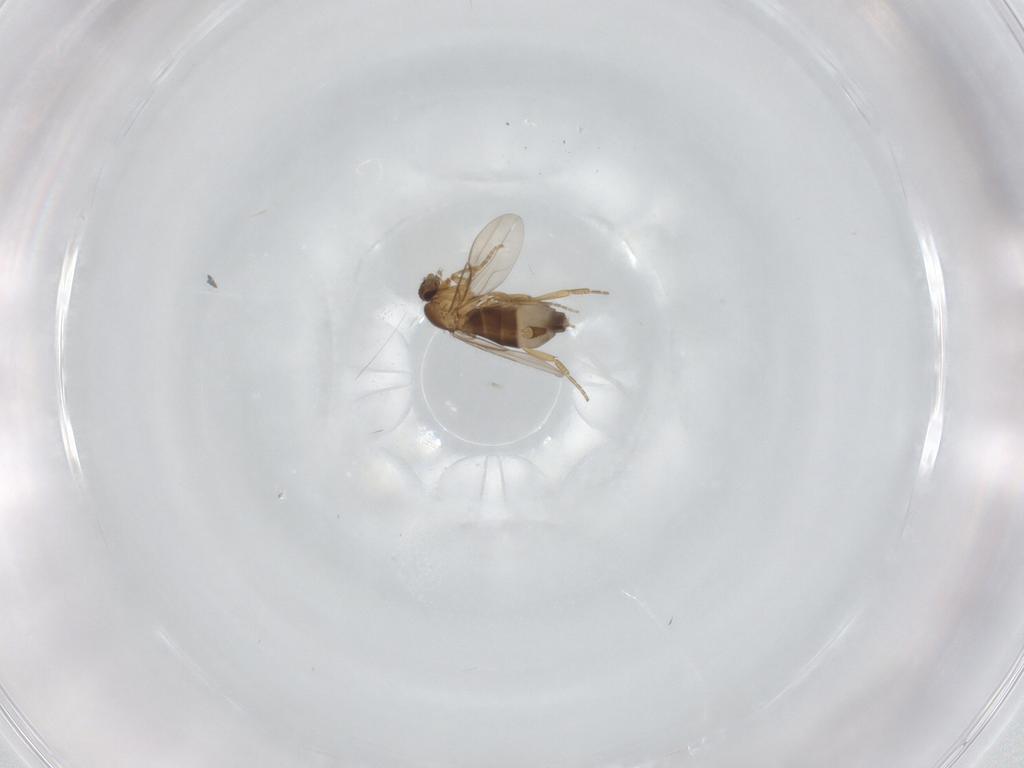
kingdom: Animalia
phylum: Arthropoda
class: Insecta
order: Diptera
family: Phoridae
